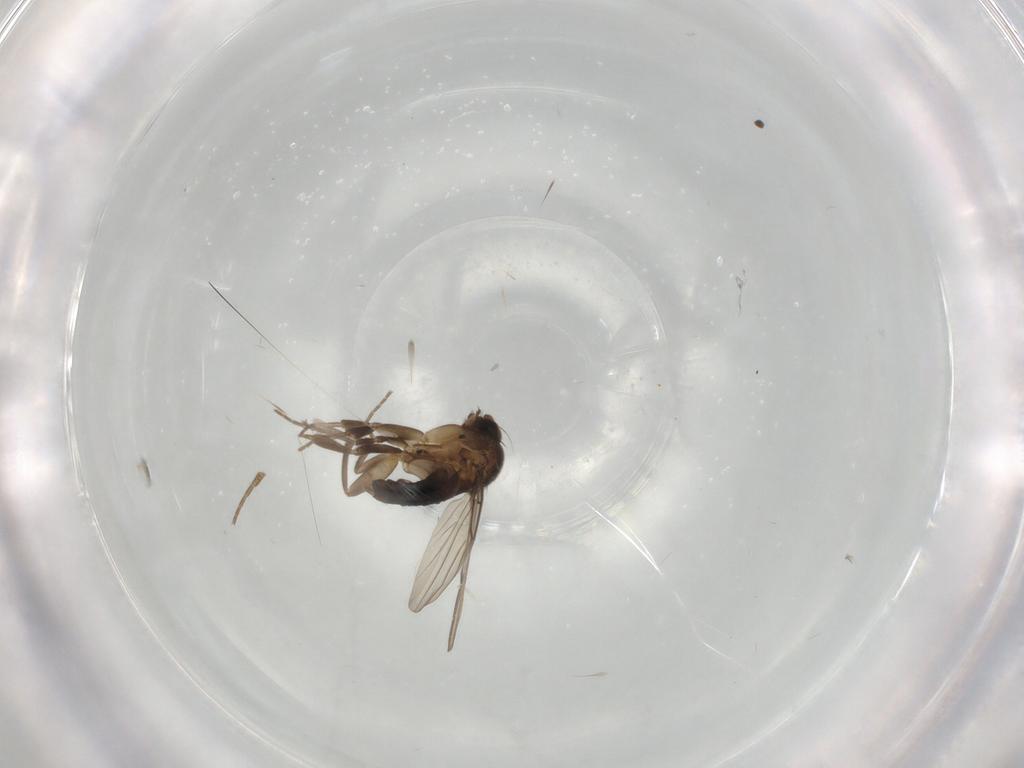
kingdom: Animalia
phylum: Arthropoda
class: Insecta
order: Diptera
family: Phoridae
